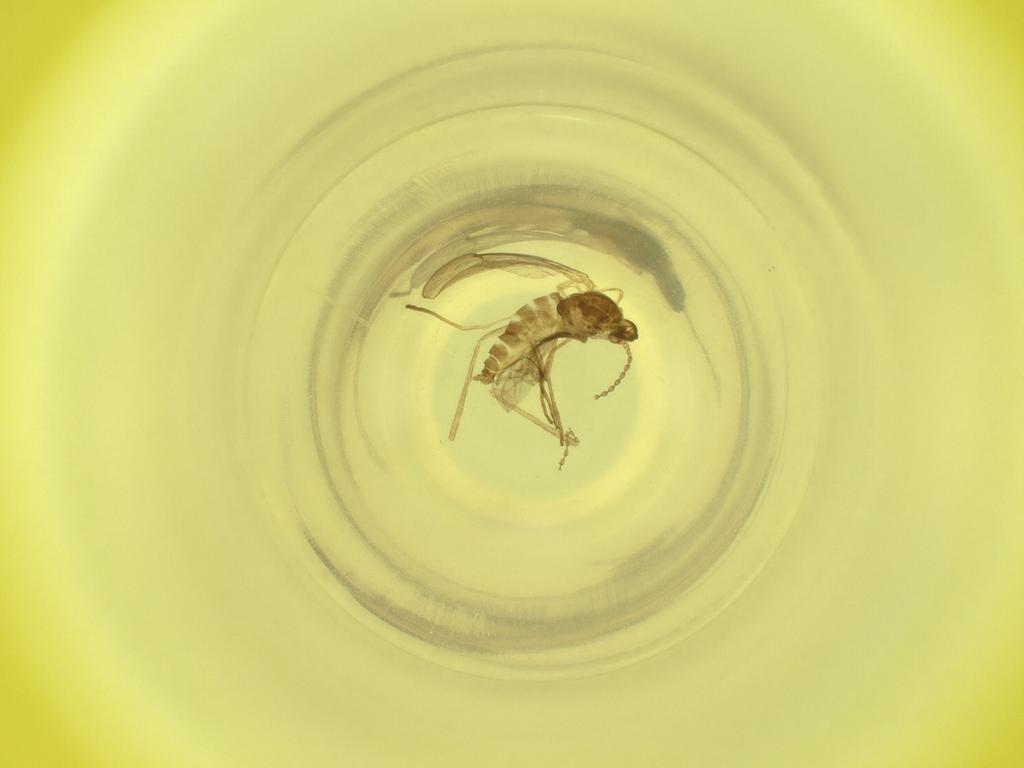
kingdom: Animalia
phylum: Arthropoda
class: Insecta
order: Diptera
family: Cecidomyiidae
